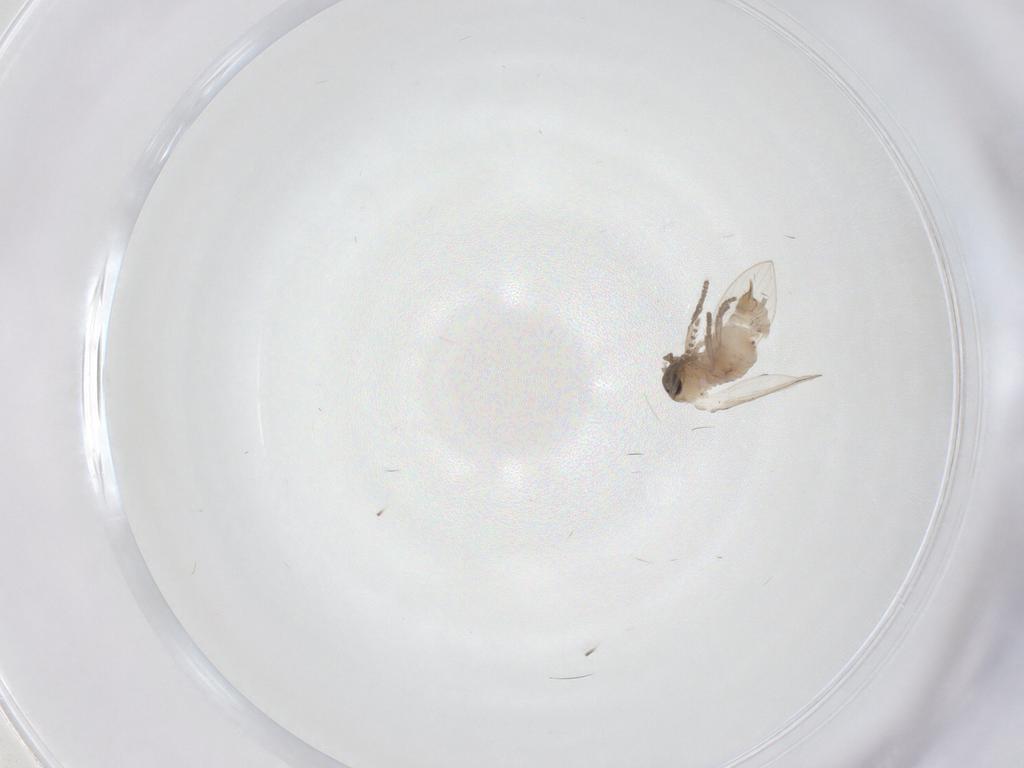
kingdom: Animalia
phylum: Arthropoda
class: Insecta
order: Diptera
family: Psychodidae
